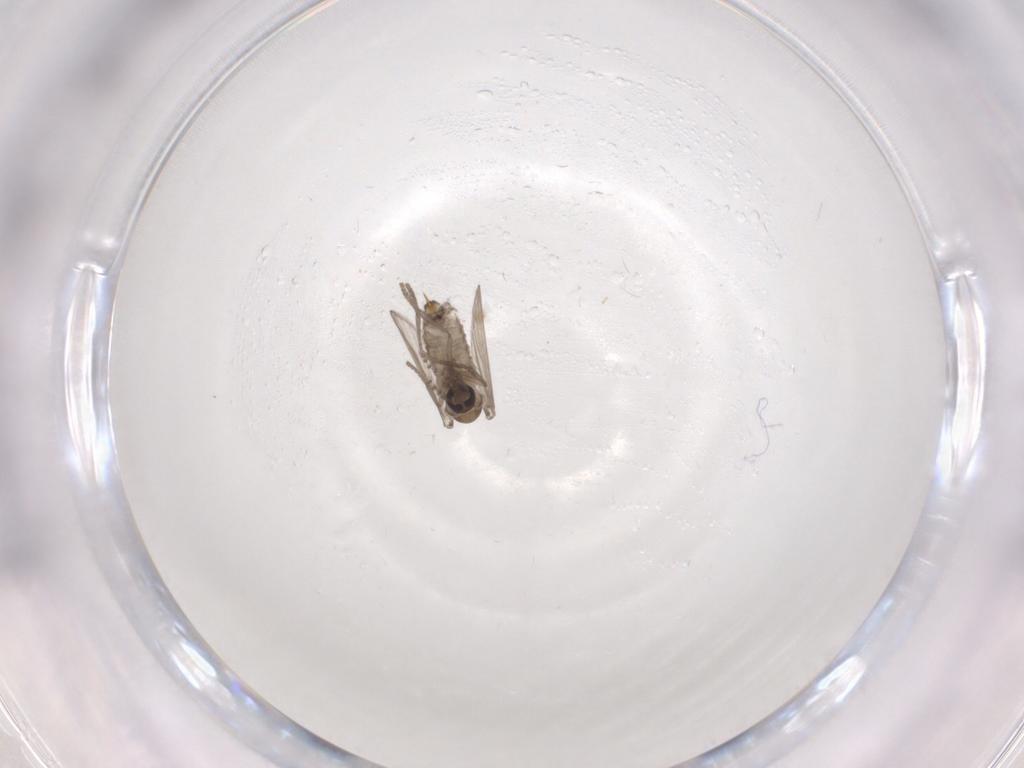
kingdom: Animalia
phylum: Arthropoda
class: Insecta
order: Diptera
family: Psychodidae
